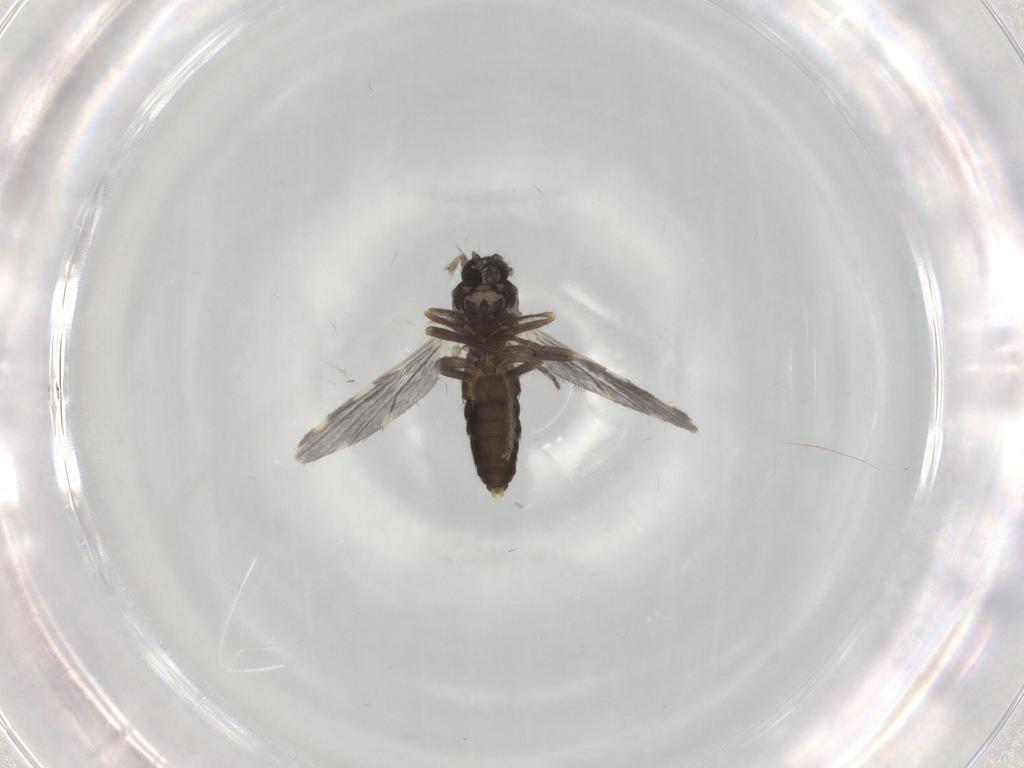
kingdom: Animalia
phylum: Arthropoda
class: Insecta
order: Diptera
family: Ceratopogonidae
